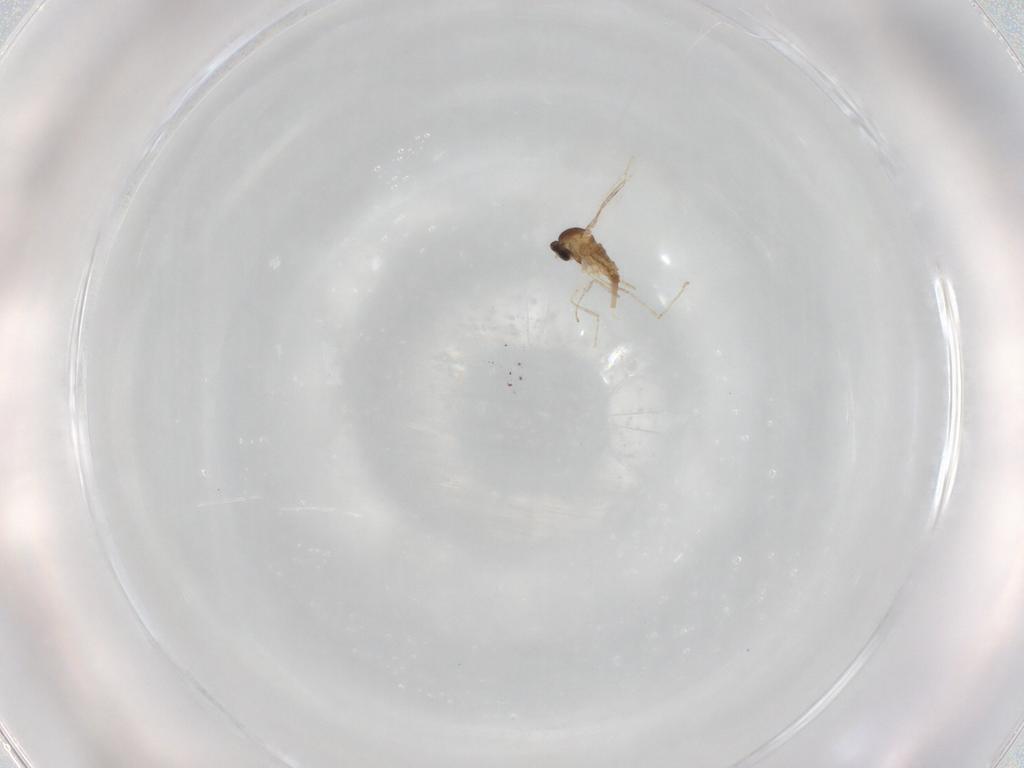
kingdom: Animalia
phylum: Arthropoda
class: Insecta
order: Diptera
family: Cecidomyiidae
